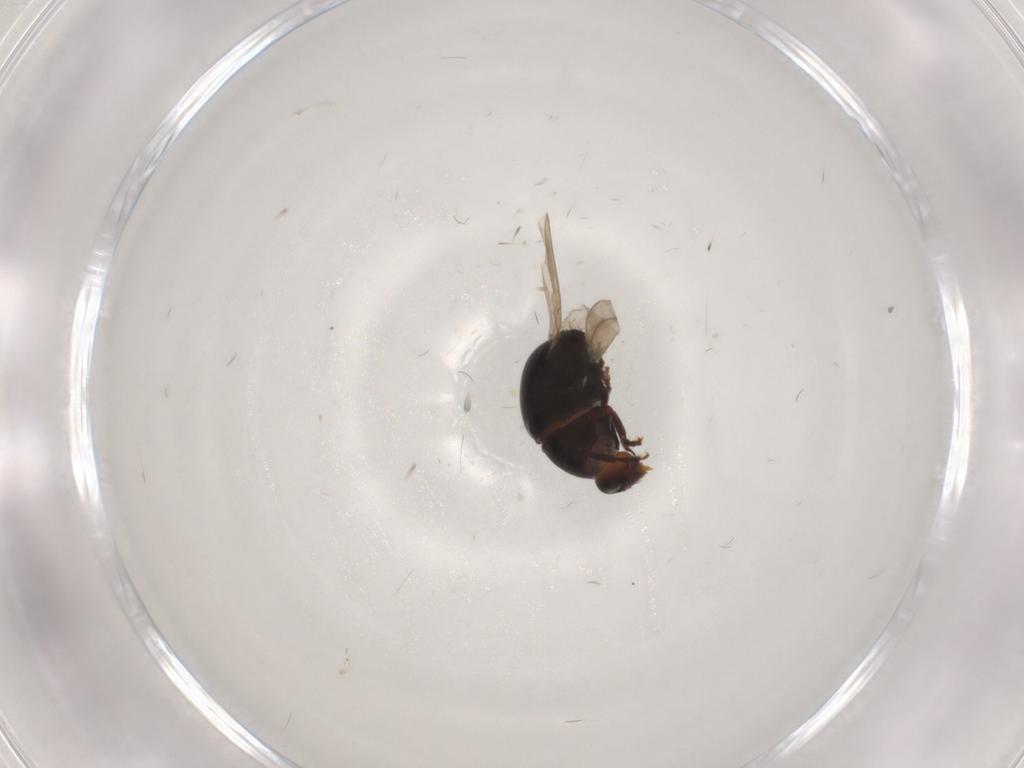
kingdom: Animalia
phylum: Arthropoda
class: Insecta
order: Coleoptera
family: Anthribidae
